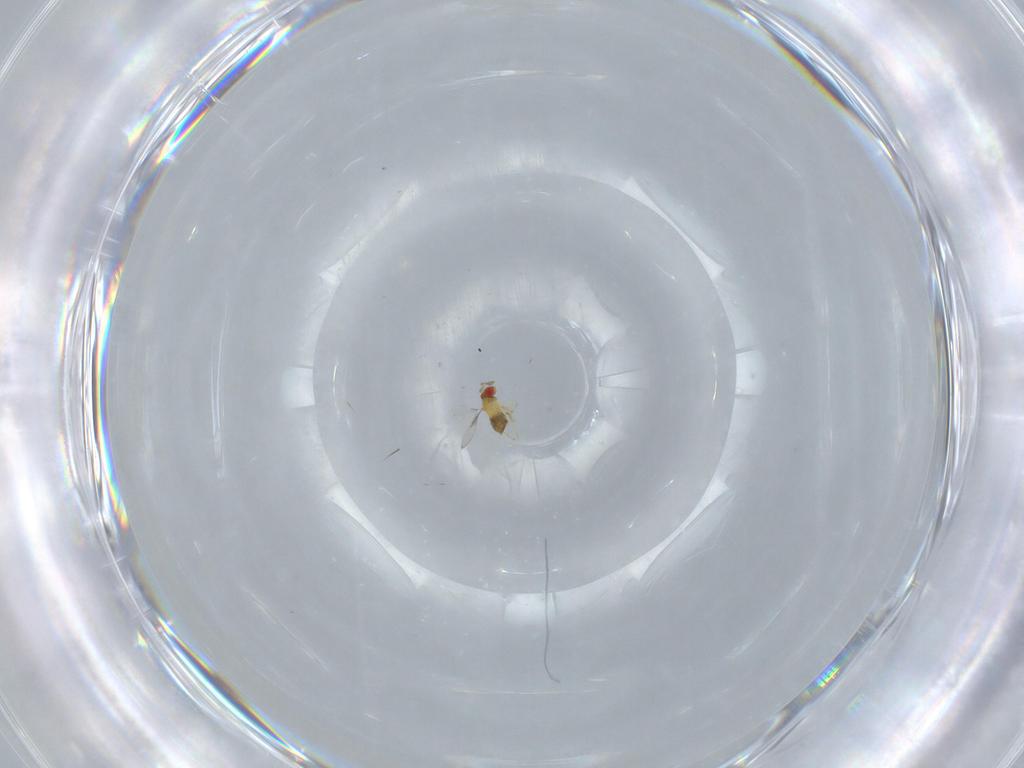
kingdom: Animalia
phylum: Arthropoda
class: Insecta
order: Hymenoptera
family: Trichogrammatidae
